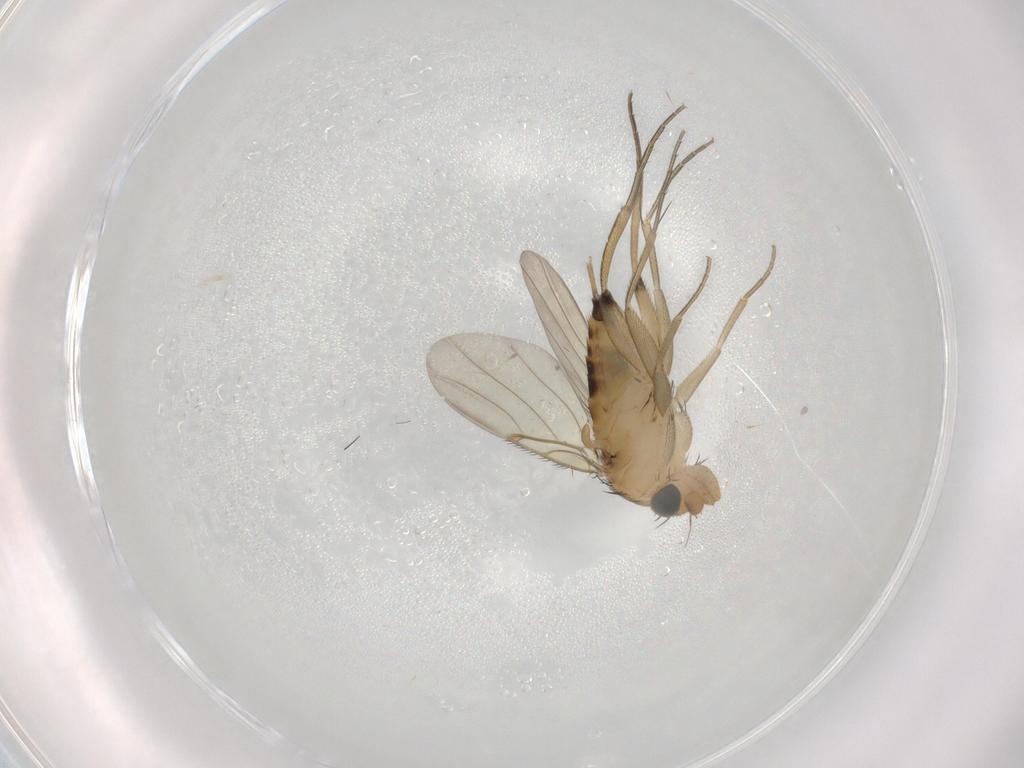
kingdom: Animalia
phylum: Arthropoda
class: Insecta
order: Diptera
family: Phoridae
